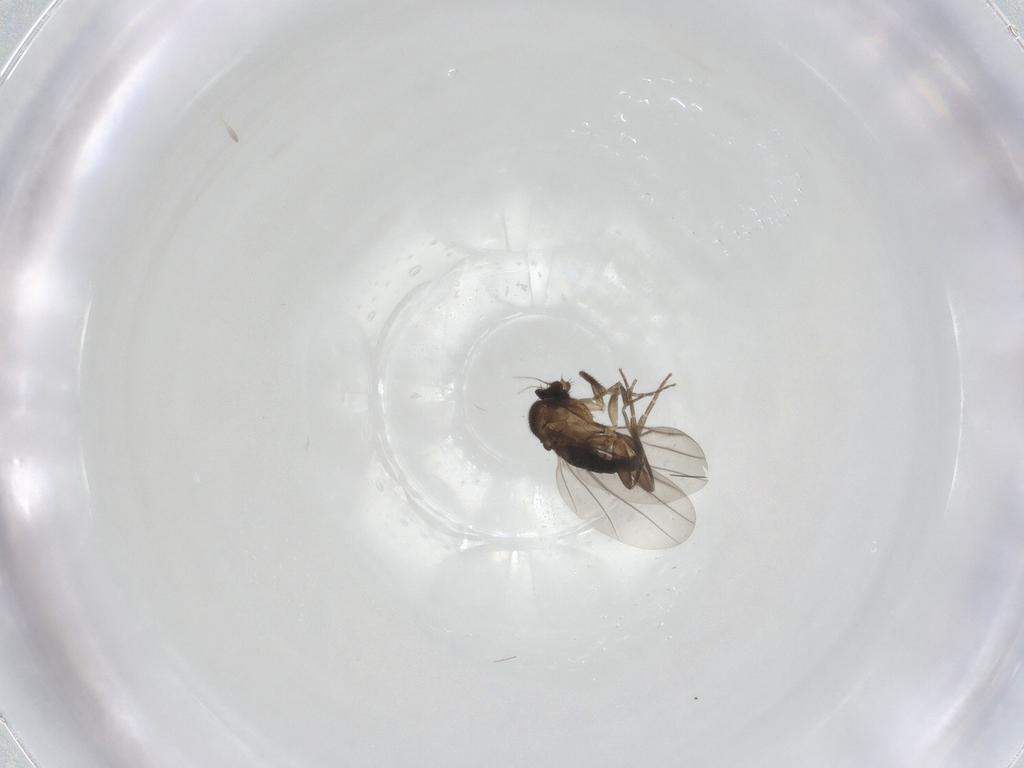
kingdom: Animalia
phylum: Arthropoda
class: Insecta
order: Diptera
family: Phoridae
